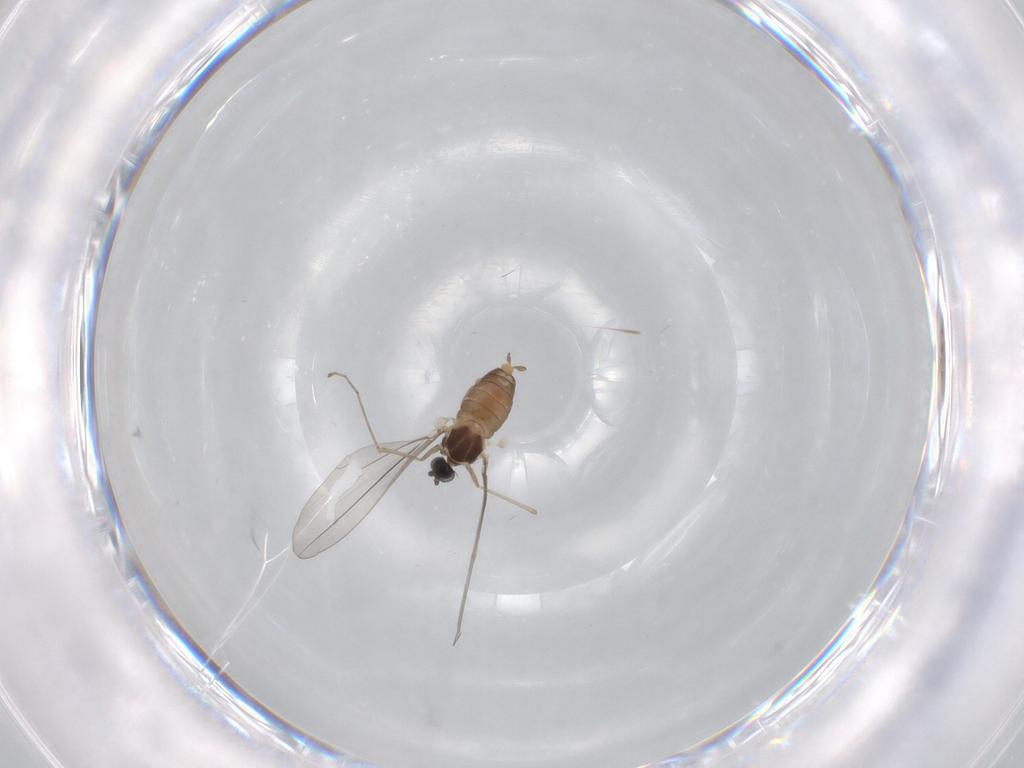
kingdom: Animalia
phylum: Arthropoda
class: Insecta
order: Diptera
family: Cecidomyiidae
